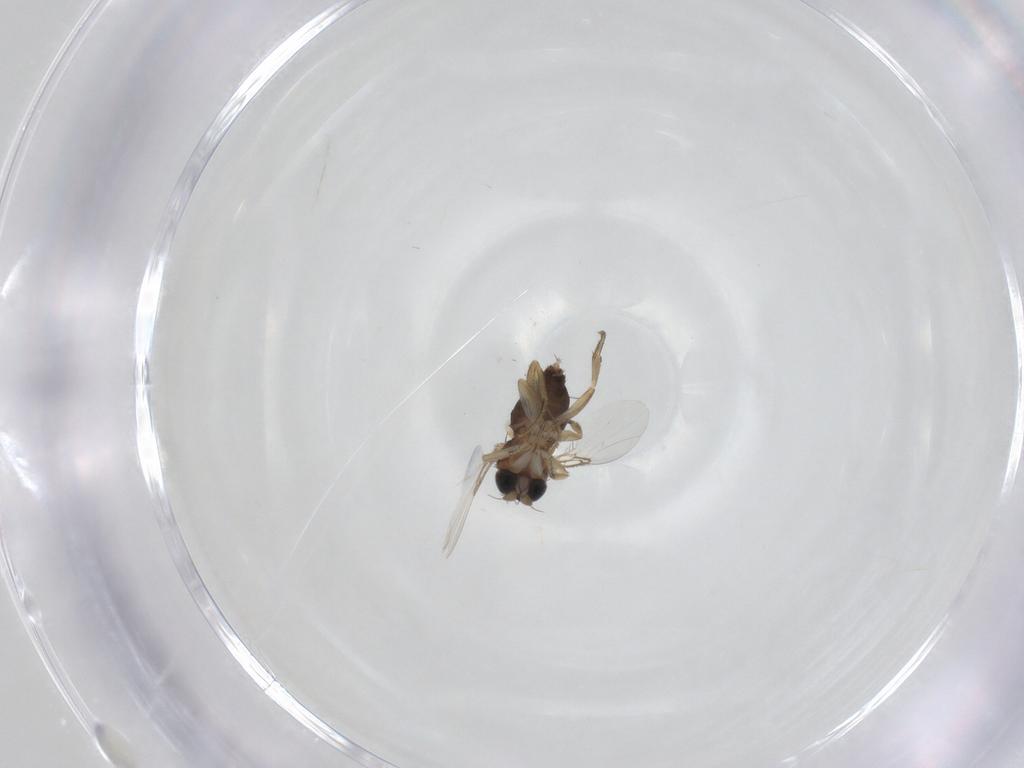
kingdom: Animalia
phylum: Arthropoda
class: Insecta
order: Diptera
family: Phoridae
